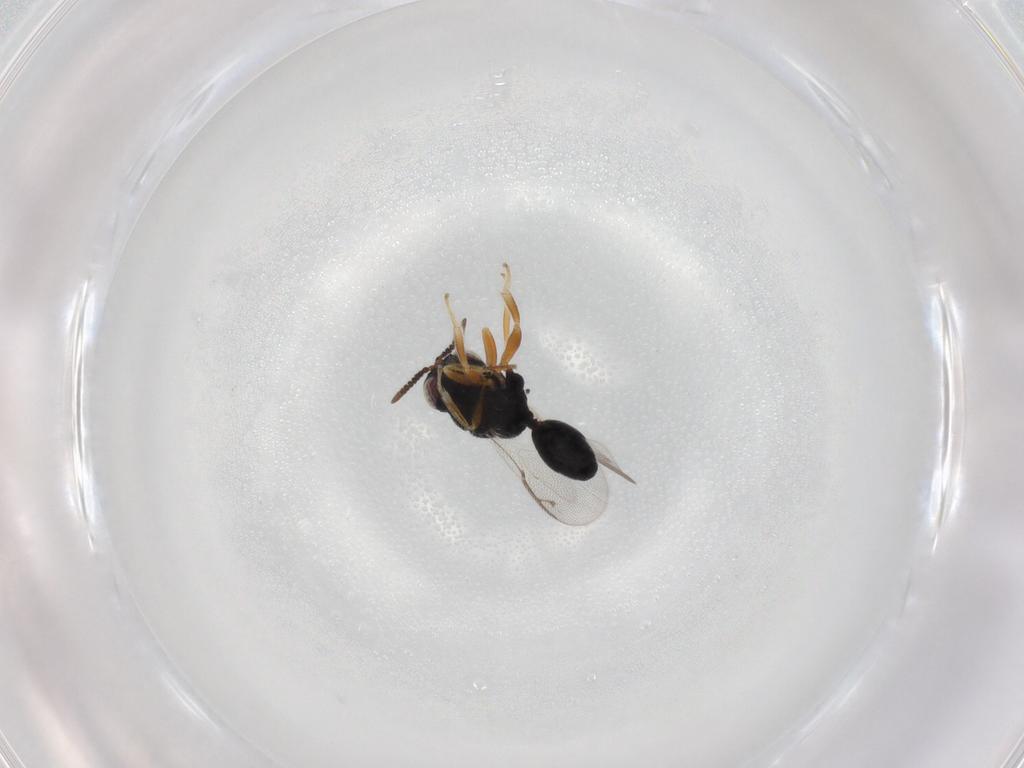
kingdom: Animalia
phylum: Arthropoda
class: Insecta
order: Hymenoptera
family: Eurytomidae
